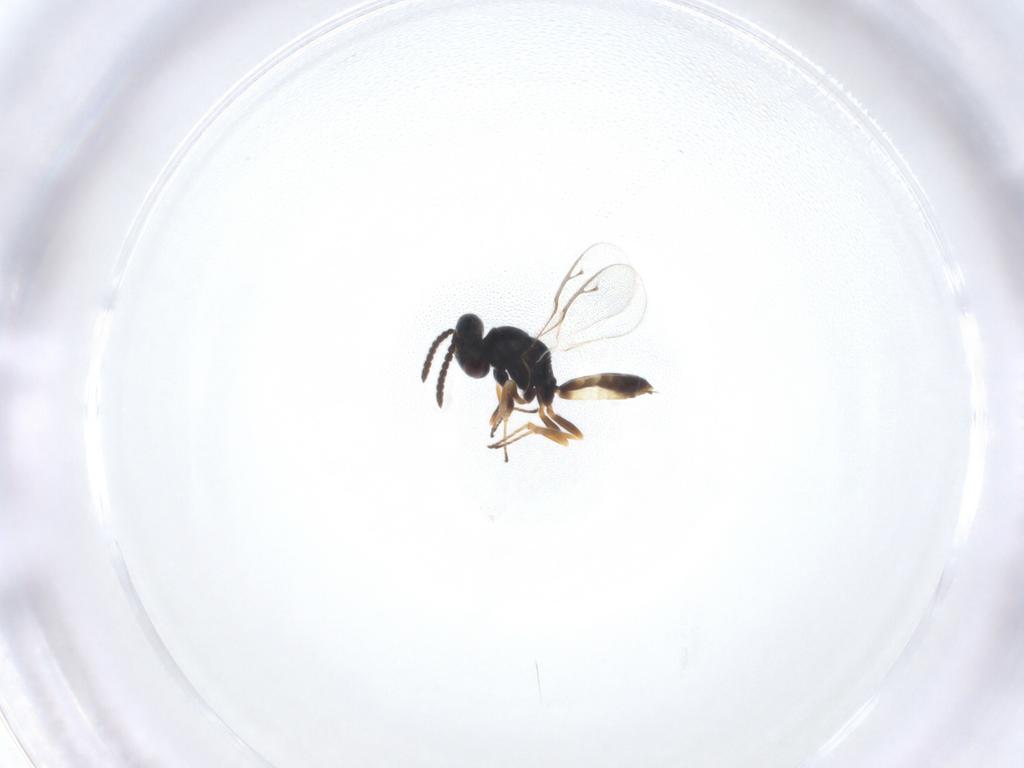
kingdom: Animalia
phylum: Arthropoda
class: Insecta
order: Hymenoptera
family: Pteromalidae
